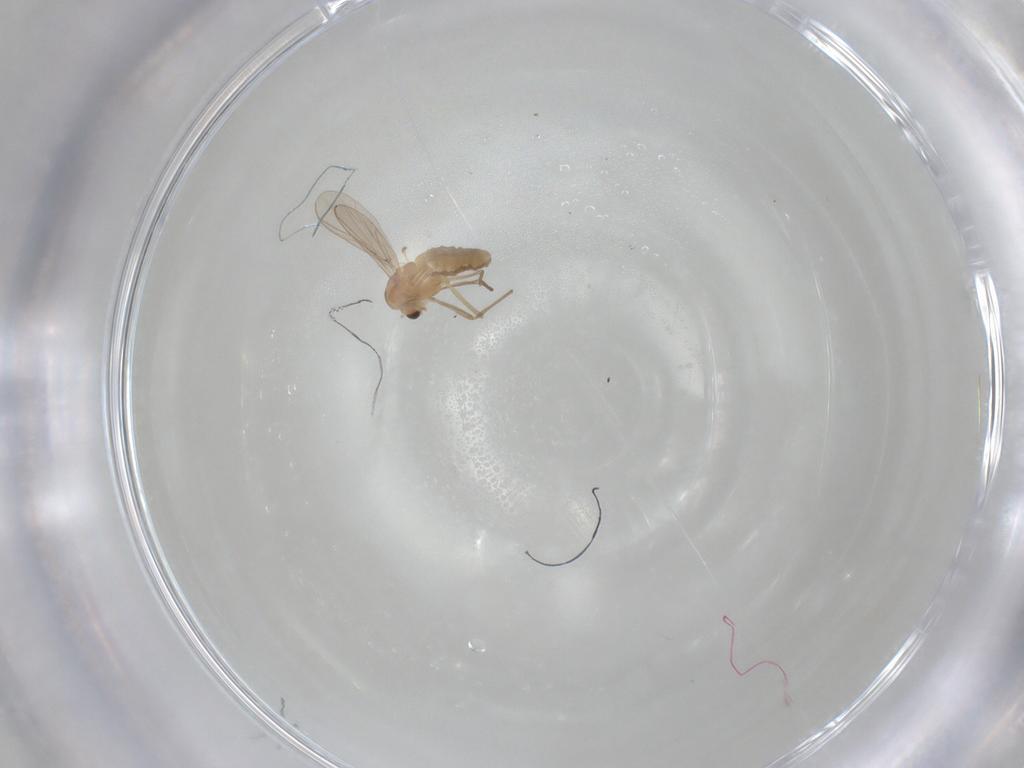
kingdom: Animalia
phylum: Arthropoda
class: Insecta
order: Diptera
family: Chironomidae
